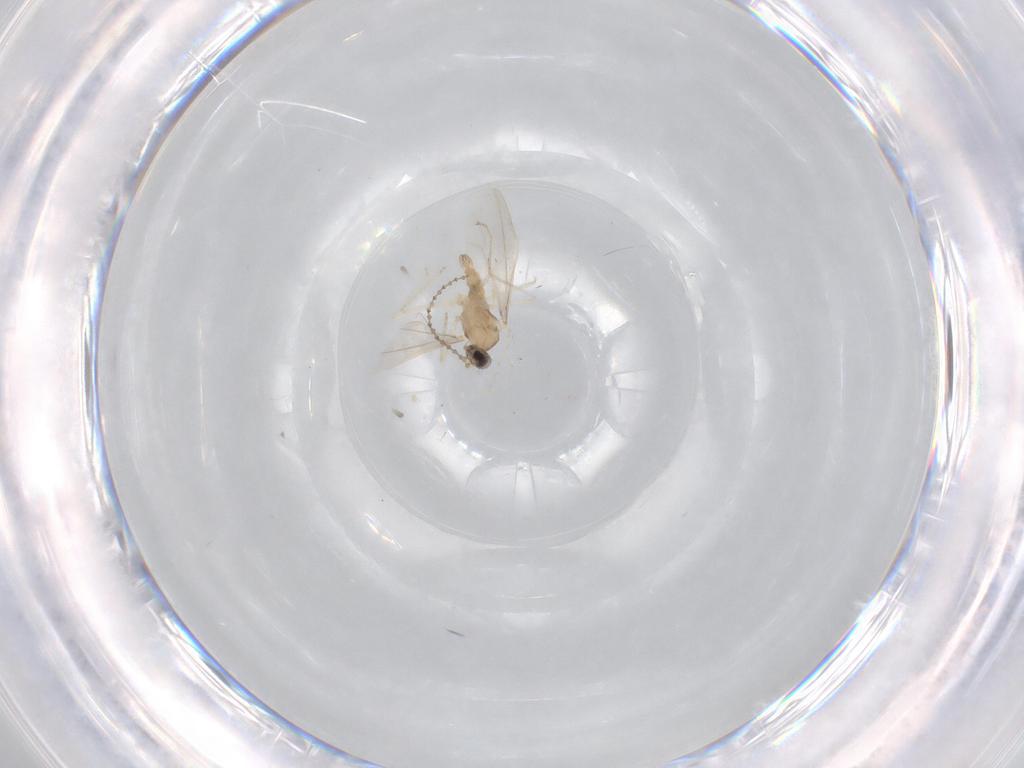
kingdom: Animalia
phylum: Arthropoda
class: Insecta
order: Diptera
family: Cecidomyiidae
